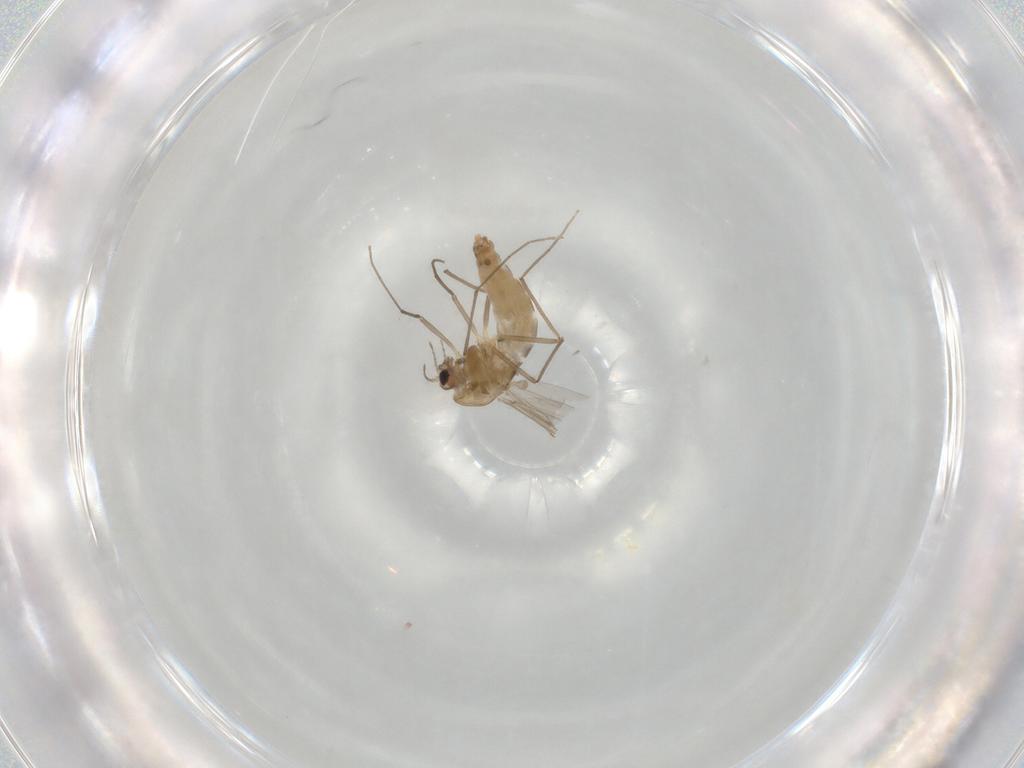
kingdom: Animalia
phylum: Arthropoda
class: Insecta
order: Diptera
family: Chironomidae
